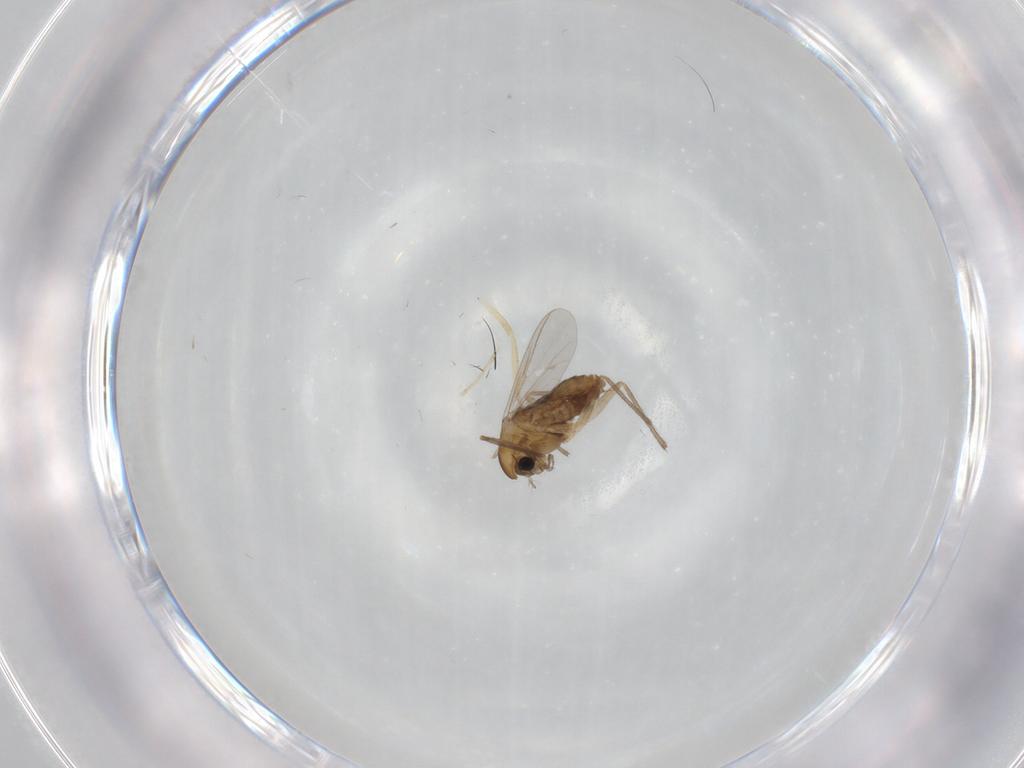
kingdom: Animalia
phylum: Arthropoda
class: Insecta
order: Diptera
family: Chironomidae
